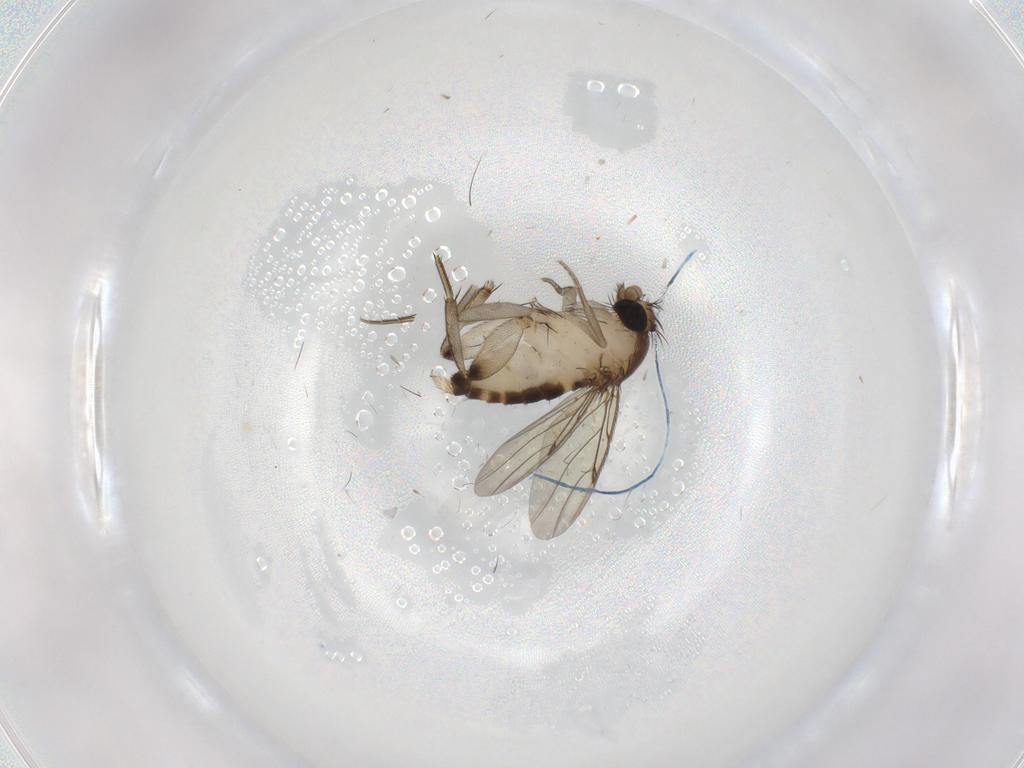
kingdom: Animalia
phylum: Arthropoda
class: Insecta
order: Diptera
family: Phoridae
